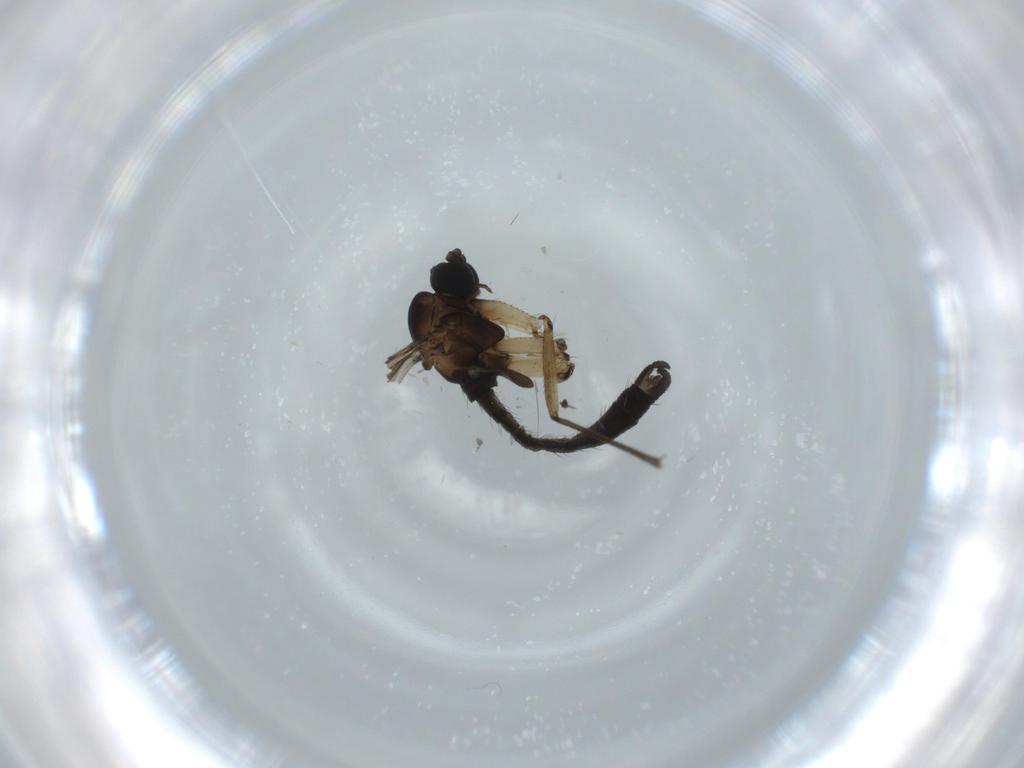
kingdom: Animalia
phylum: Arthropoda
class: Insecta
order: Diptera
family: Sciaridae
